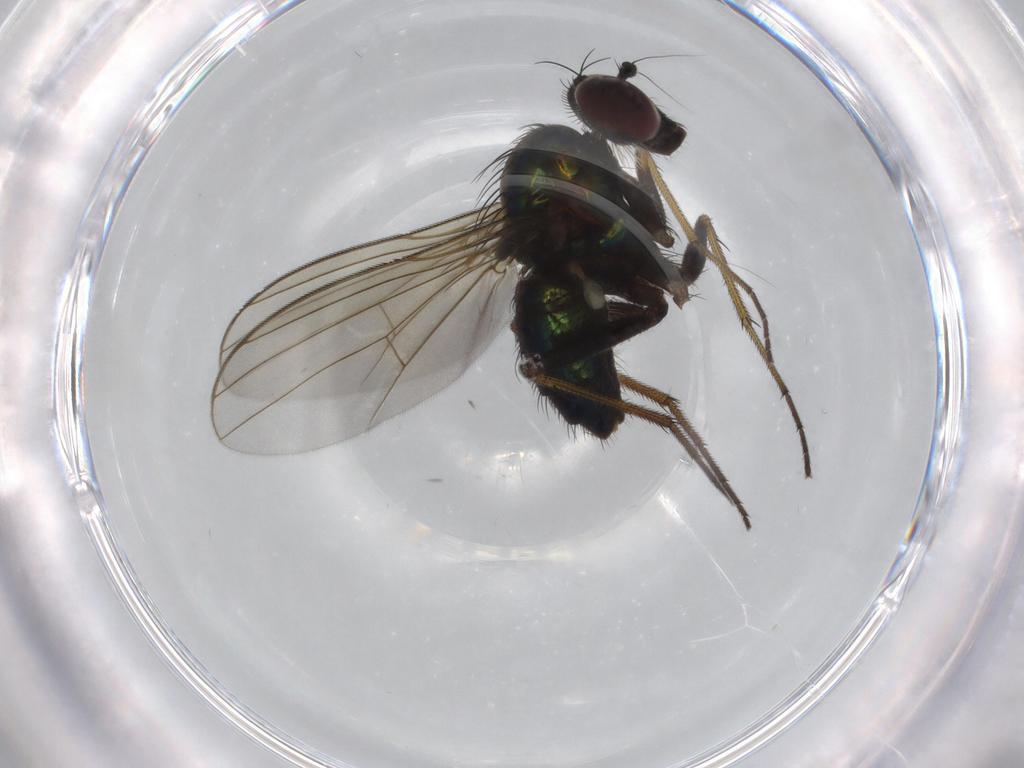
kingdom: Animalia
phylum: Arthropoda
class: Insecta
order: Diptera
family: Dolichopodidae
